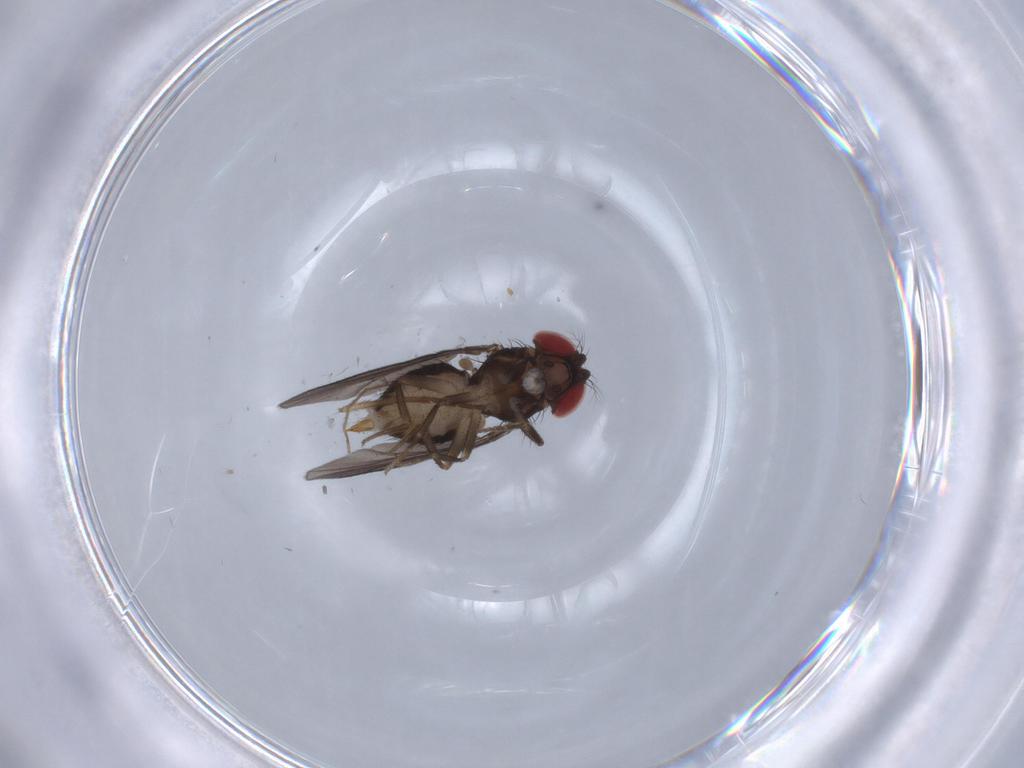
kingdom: Animalia
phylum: Arthropoda
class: Insecta
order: Diptera
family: Drosophilidae
